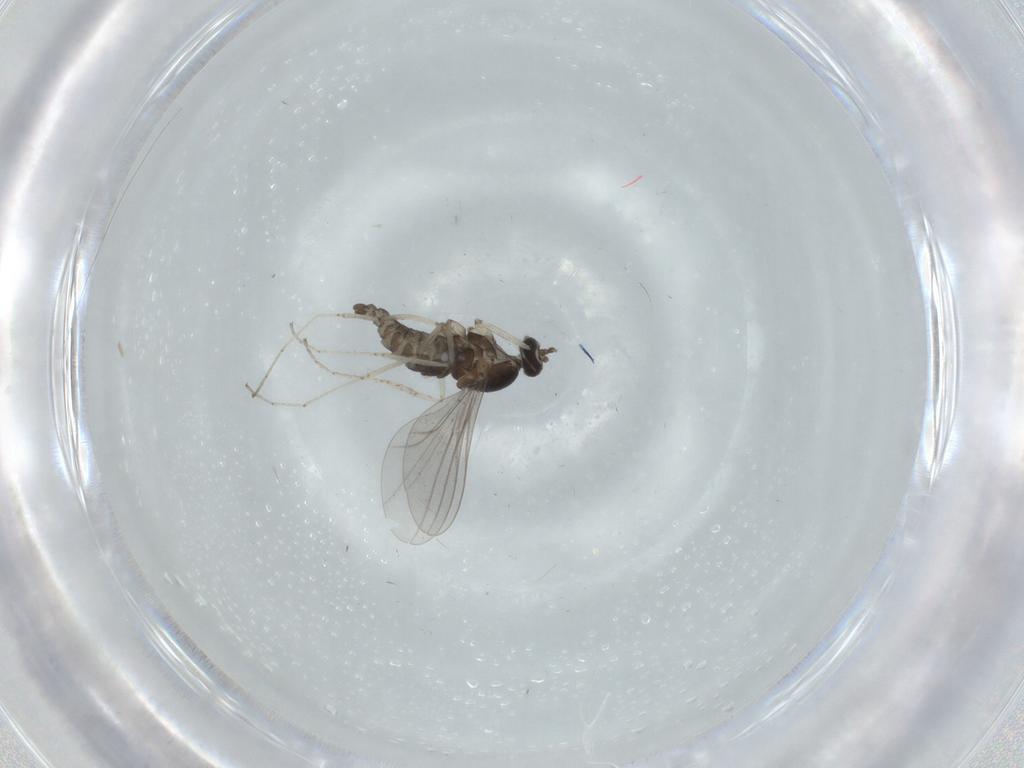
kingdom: Animalia
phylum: Arthropoda
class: Insecta
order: Diptera
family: Cecidomyiidae
